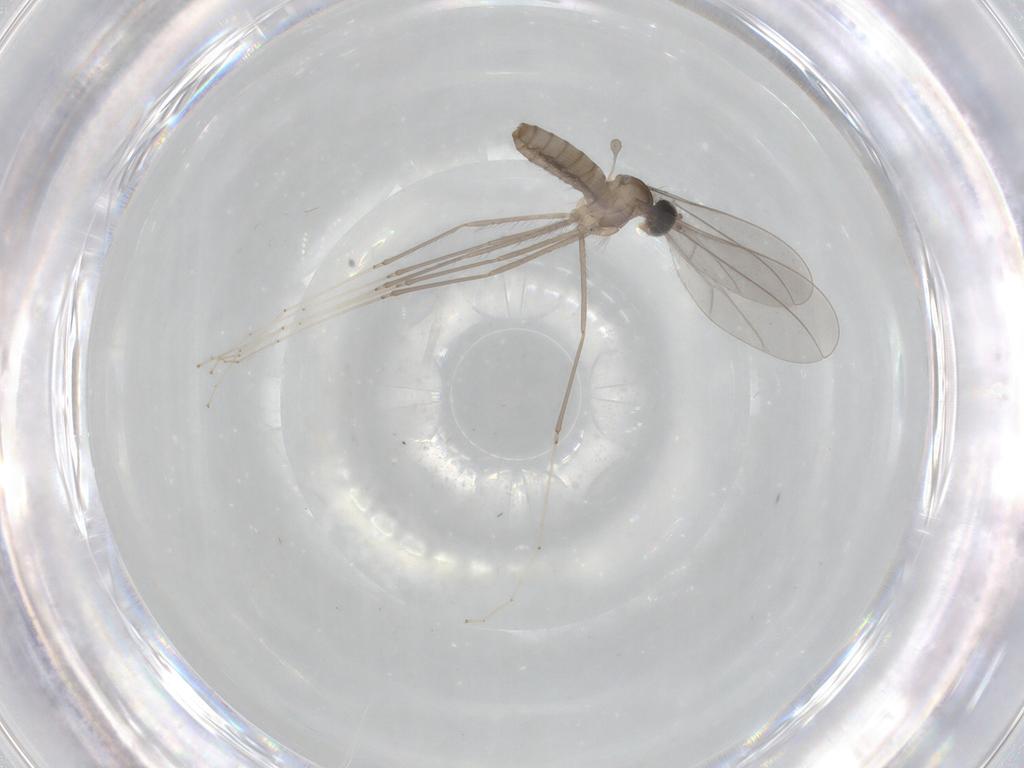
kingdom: Animalia
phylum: Arthropoda
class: Insecta
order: Diptera
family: Cecidomyiidae
